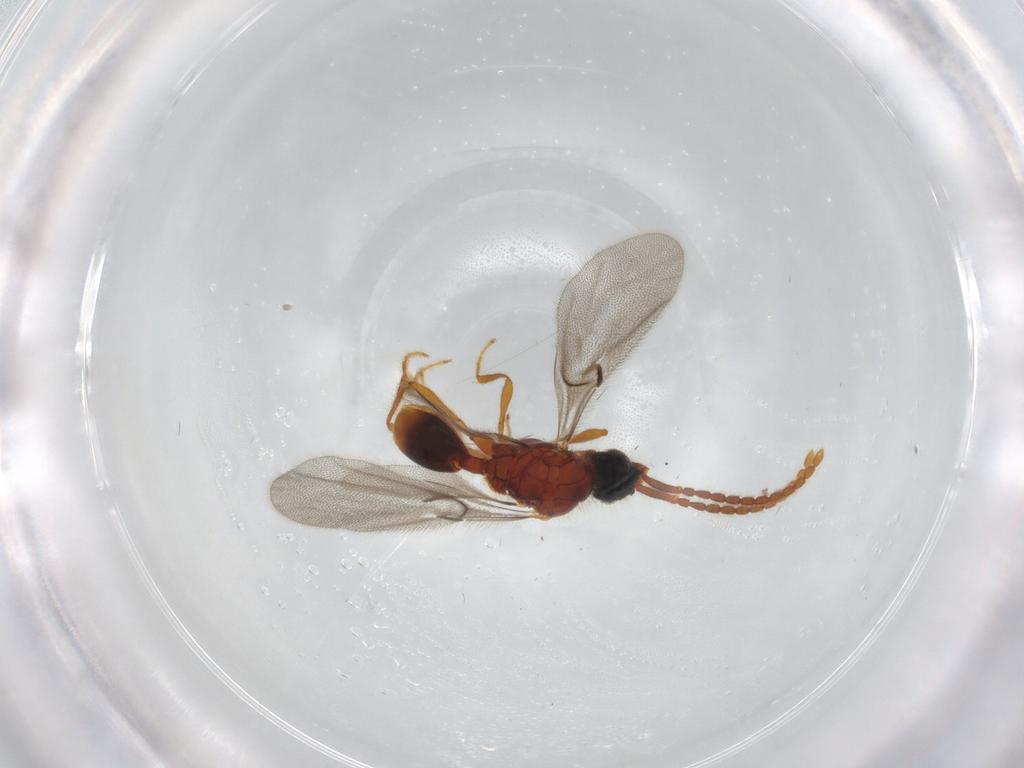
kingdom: Animalia
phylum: Arthropoda
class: Insecta
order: Hymenoptera
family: Diapriidae
